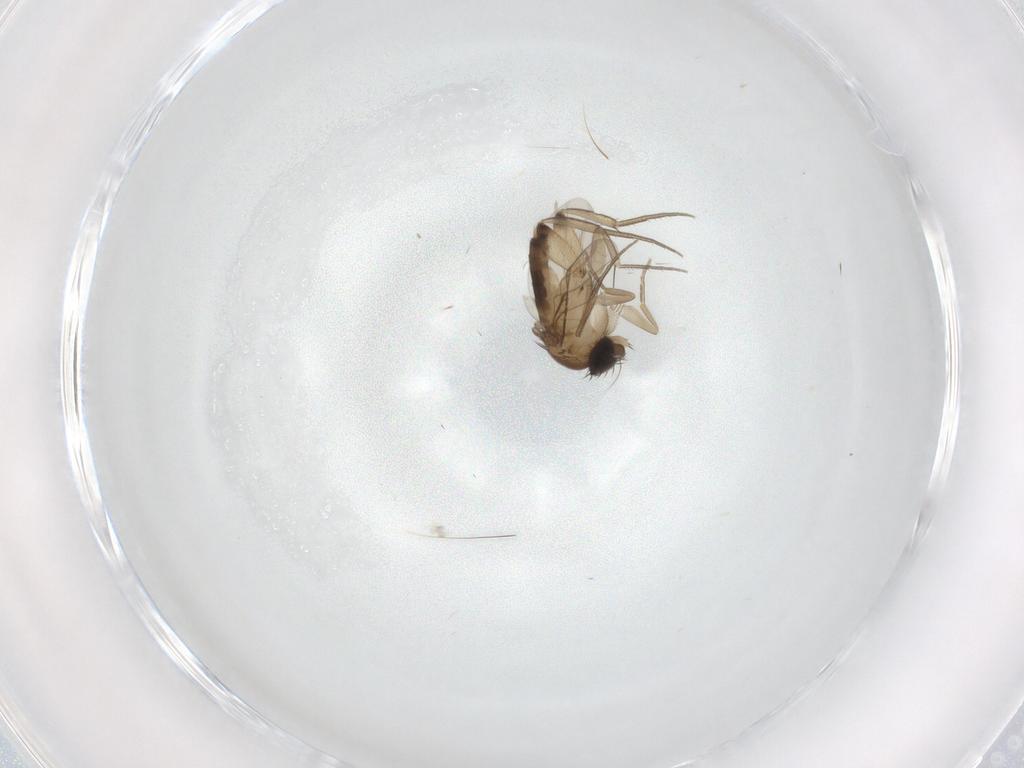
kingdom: Animalia
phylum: Arthropoda
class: Insecta
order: Diptera
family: Phoridae
